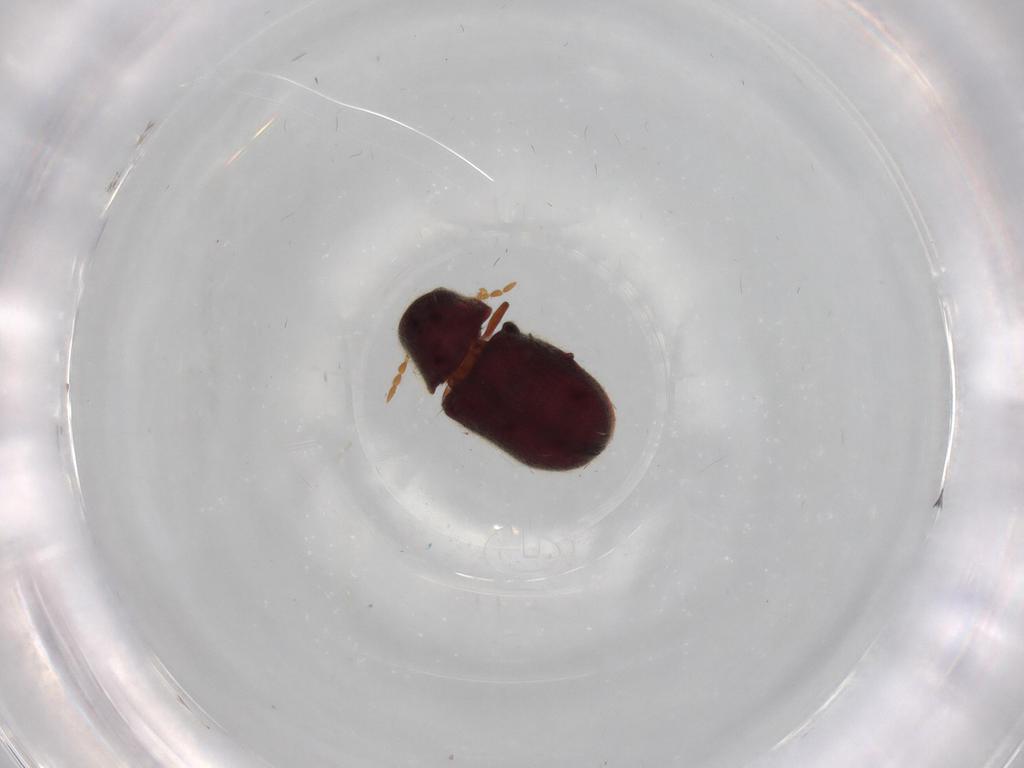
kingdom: Animalia
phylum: Arthropoda
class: Insecta
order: Coleoptera
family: Ptinidae
